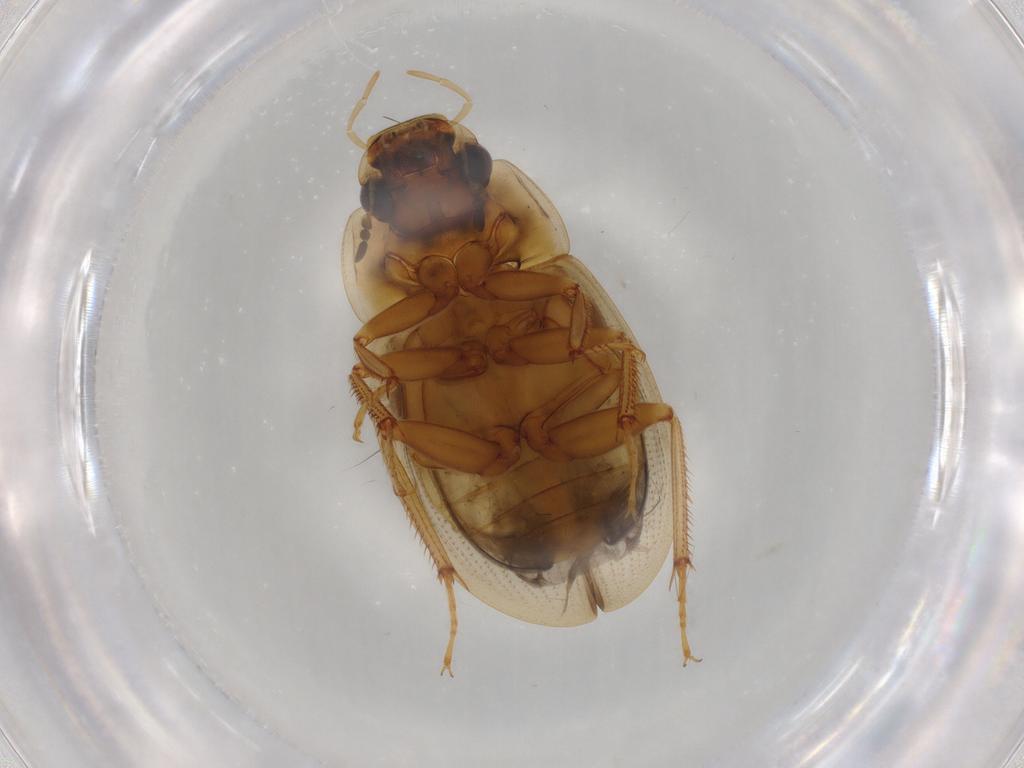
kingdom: Animalia
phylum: Arthropoda
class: Insecta
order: Coleoptera
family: Hydrophilidae
